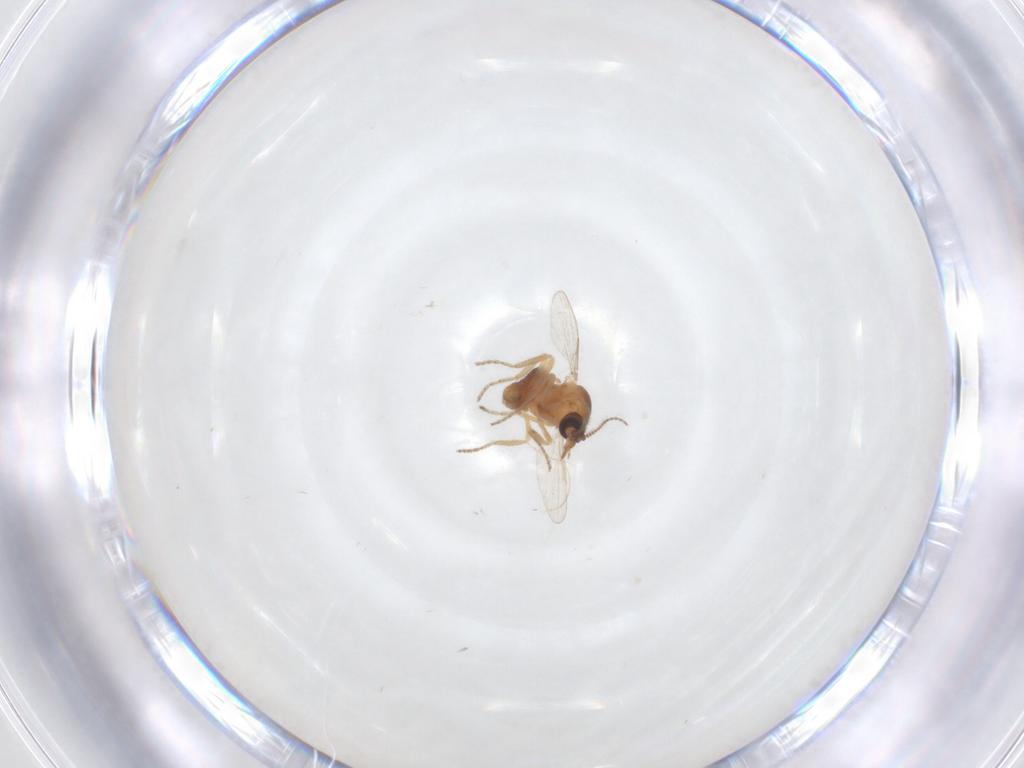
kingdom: Animalia
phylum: Arthropoda
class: Insecta
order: Diptera
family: Ceratopogonidae
